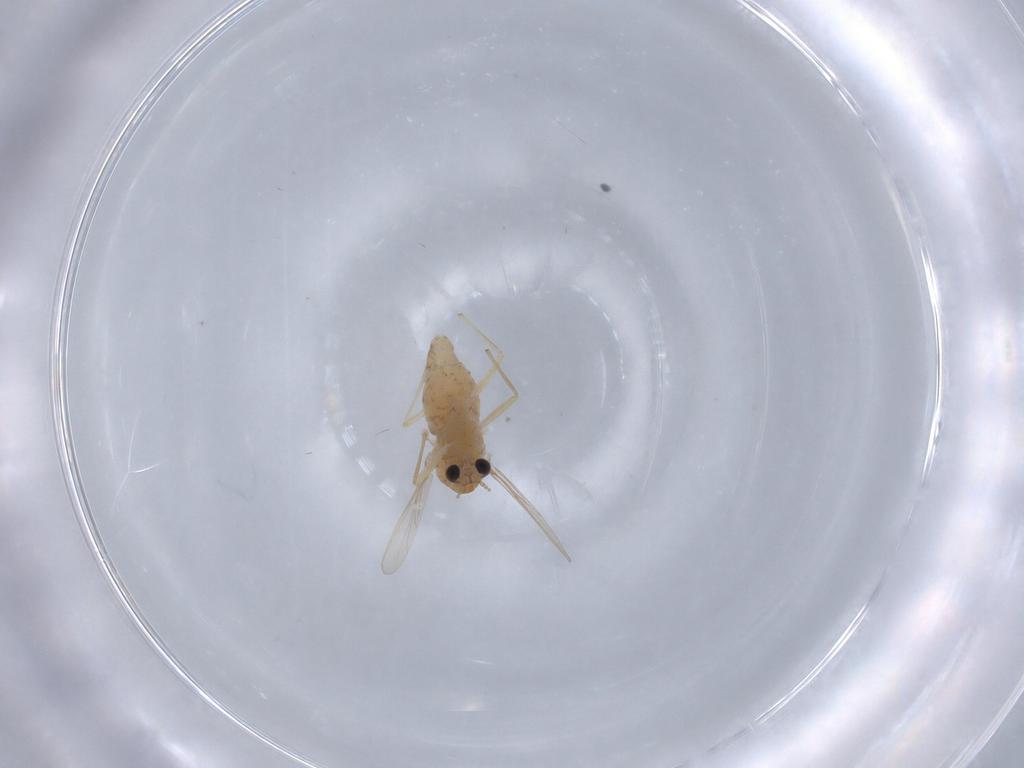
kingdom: Animalia
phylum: Arthropoda
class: Insecta
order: Diptera
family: Chironomidae
